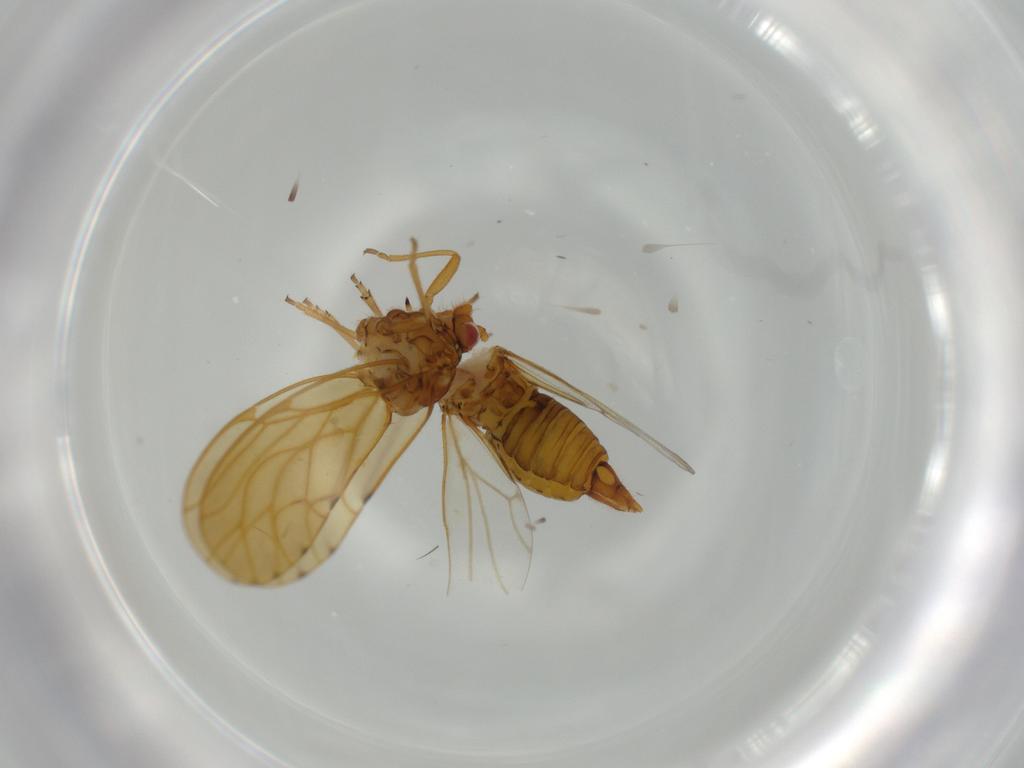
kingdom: Animalia
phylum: Arthropoda
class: Insecta
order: Hemiptera
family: Psylloidea_incertae_sedis
